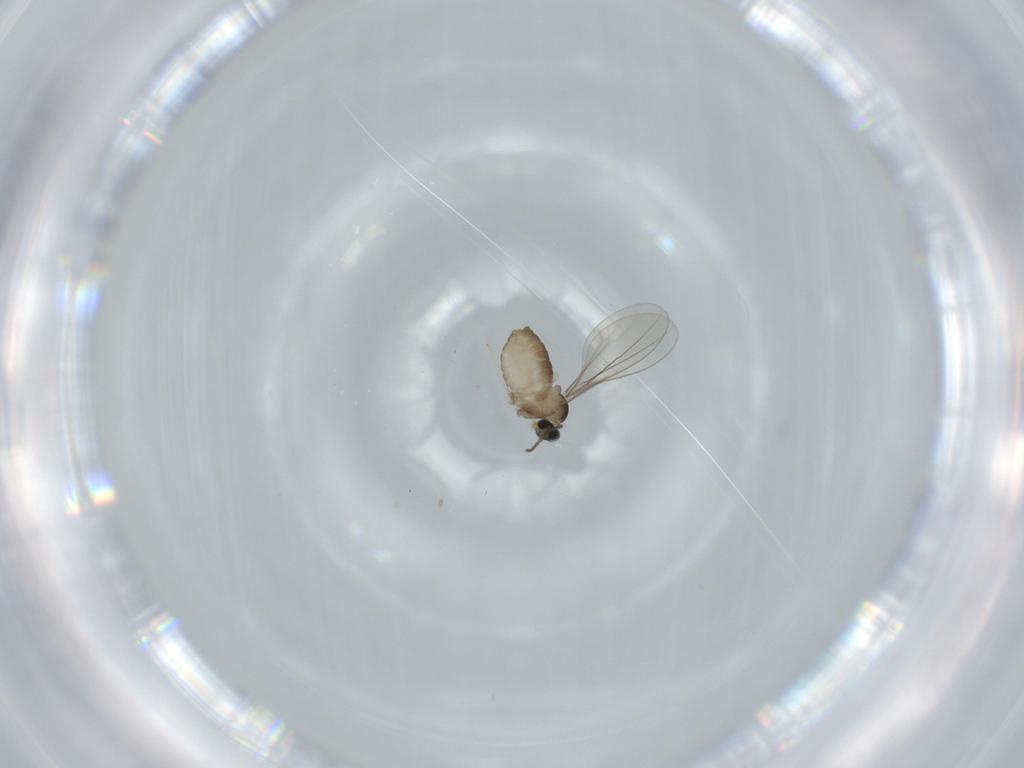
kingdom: Animalia
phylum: Arthropoda
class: Insecta
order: Diptera
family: Cecidomyiidae
